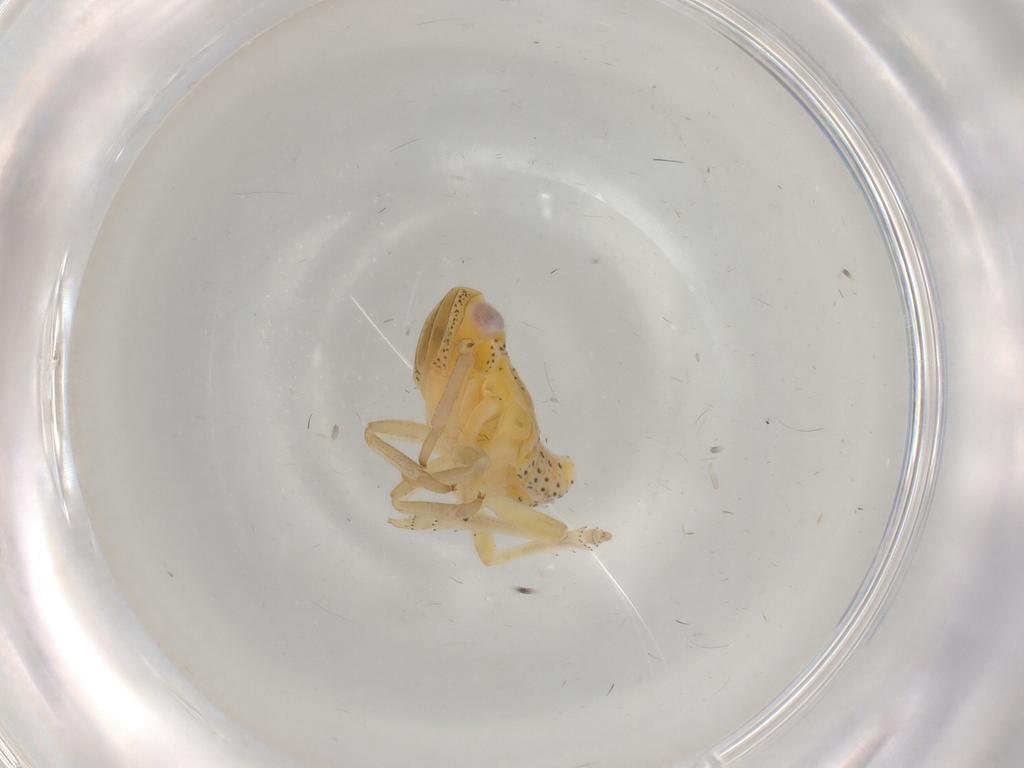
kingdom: Animalia
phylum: Arthropoda
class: Insecta
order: Hemiptera
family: Tropiduchidae
